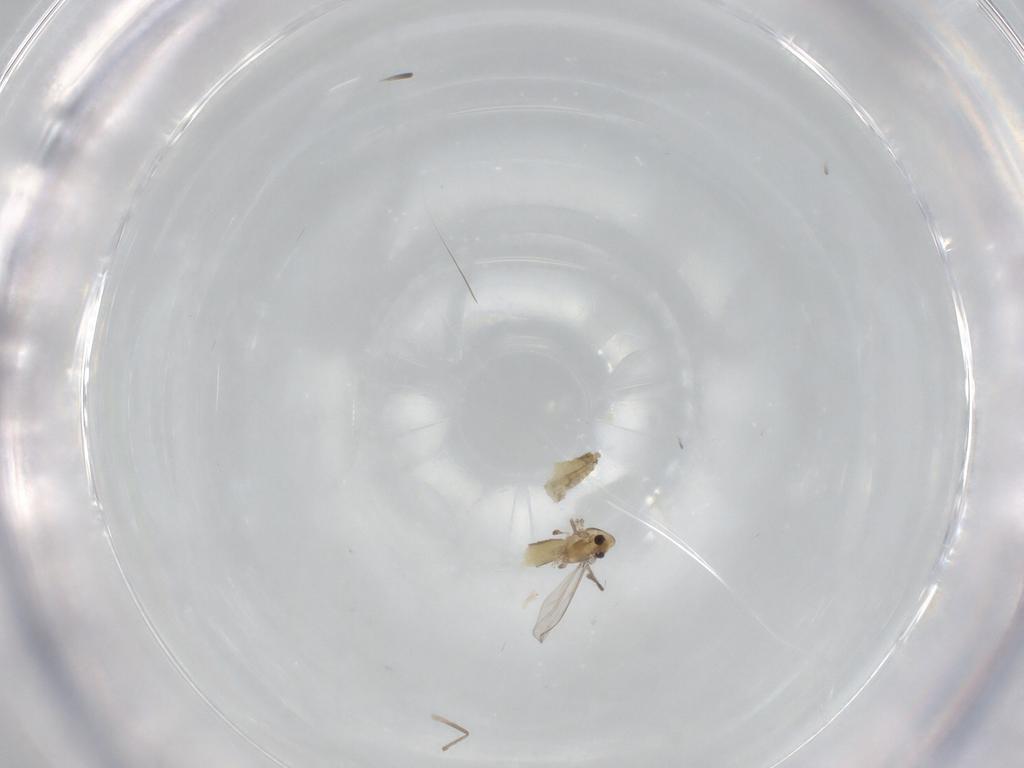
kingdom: Animalia
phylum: Arthropoda
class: Insecta
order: Diptera
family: Chironomidae
